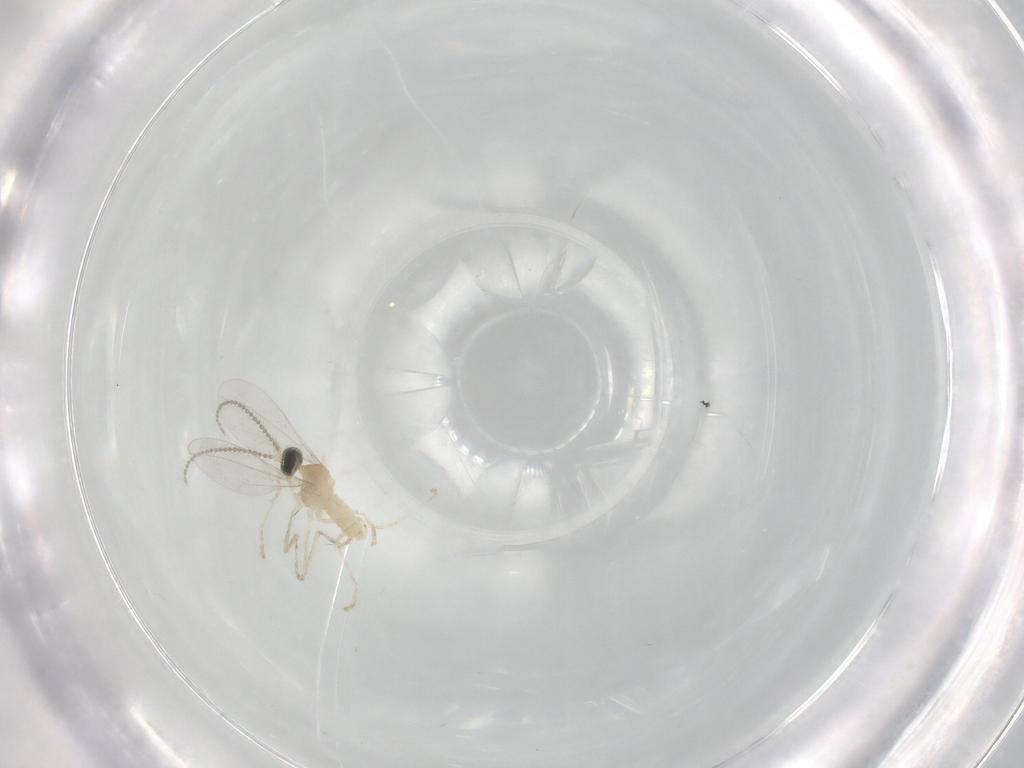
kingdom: Animalia
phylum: Arthropoda
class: Insecta
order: Diptera
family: Cecidomyiidae
